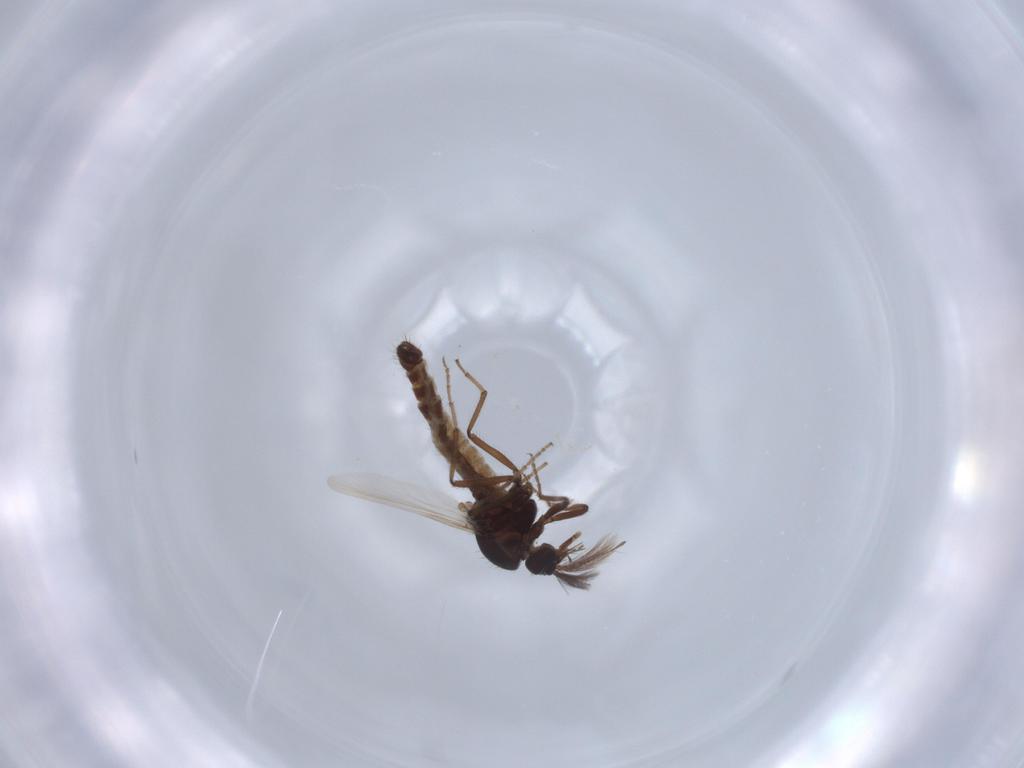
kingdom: Animalia
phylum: Arthropoda
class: Insecta
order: Diptera
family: Ceratopogonidae
